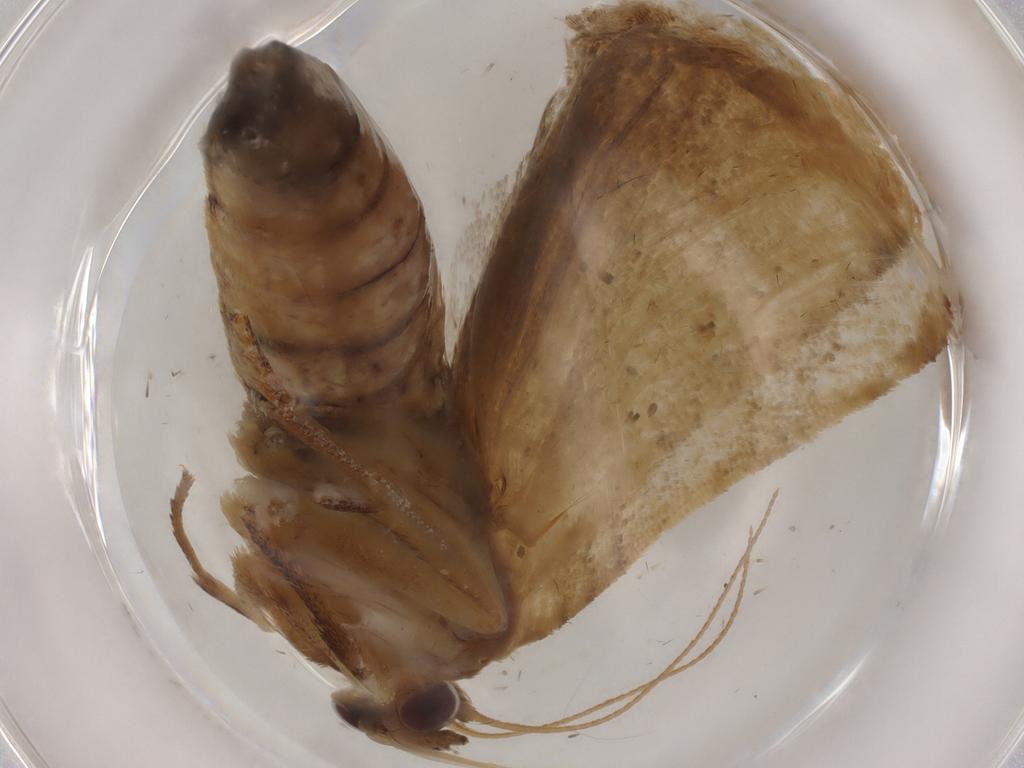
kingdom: Animalia
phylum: Arthropoda
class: Insecta
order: Lepidoptera
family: Tortricidae
